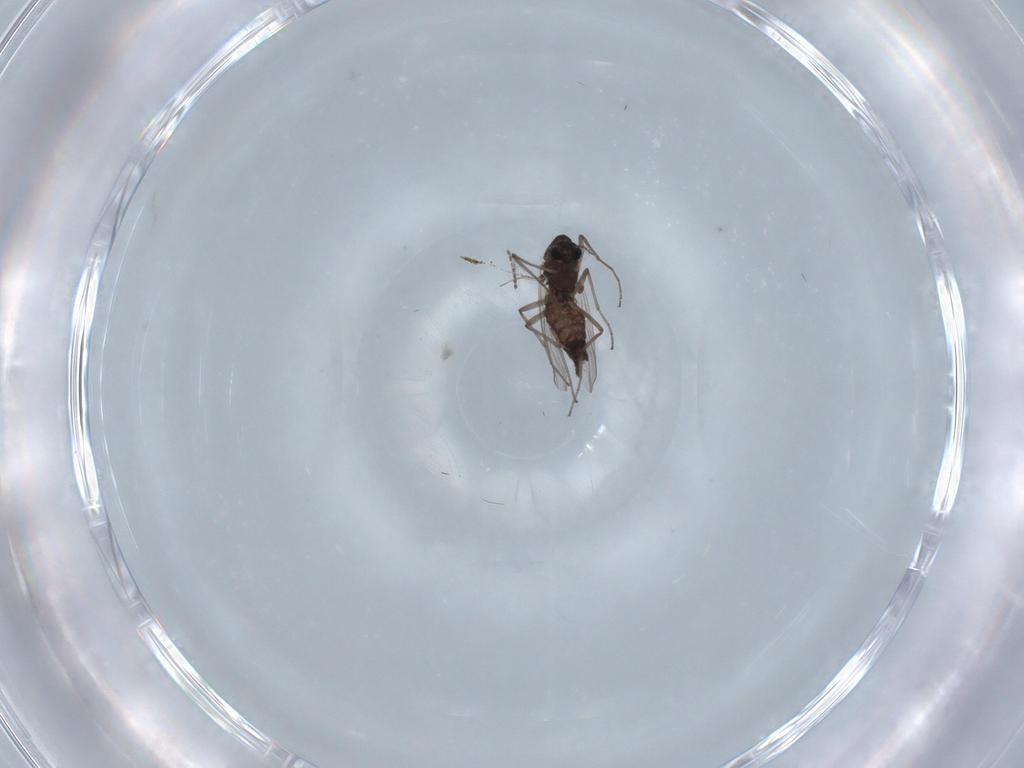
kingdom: Animalia
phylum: Arthropoda
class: Insecta
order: Diptera
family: Chironomidae
